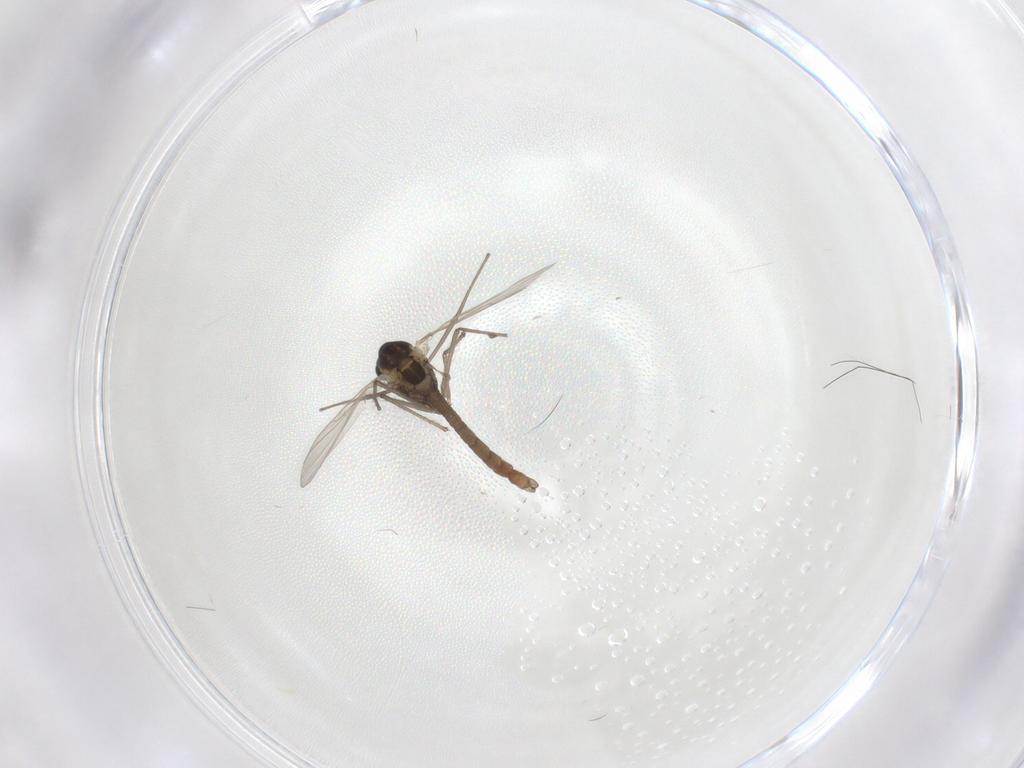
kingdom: Animalia
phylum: Arthropoda
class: Insecta
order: Diptera
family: Chironomidae
